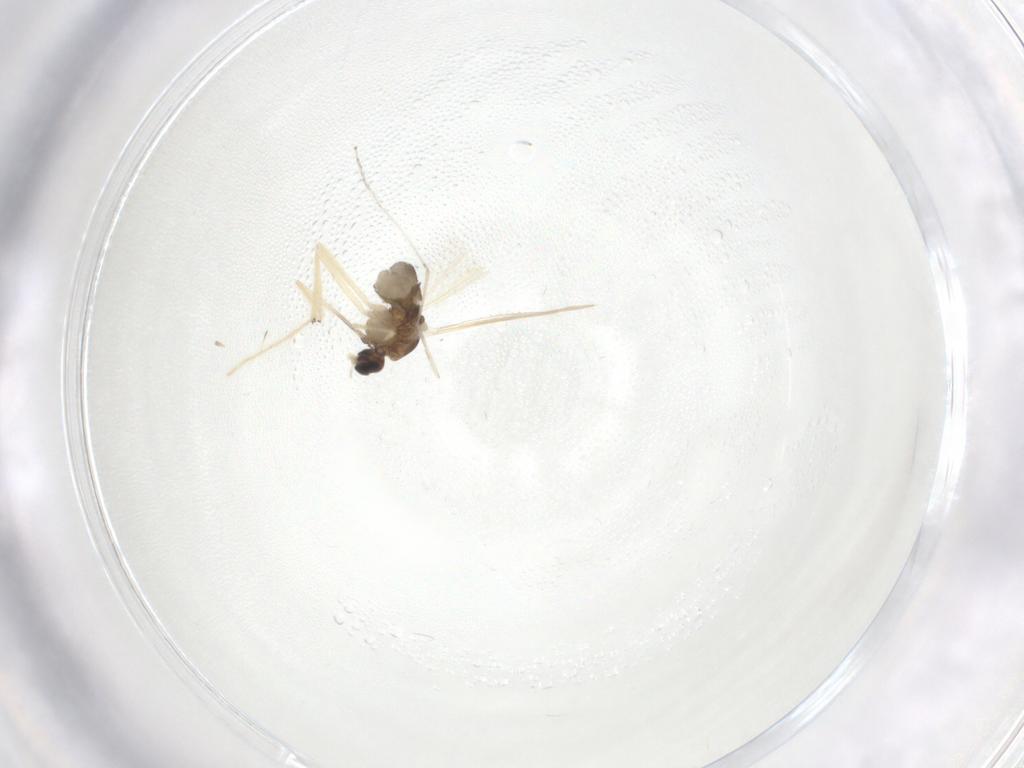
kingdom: Animalia
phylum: Arthropoda
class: Insecta
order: Diptera
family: Chironomidae
